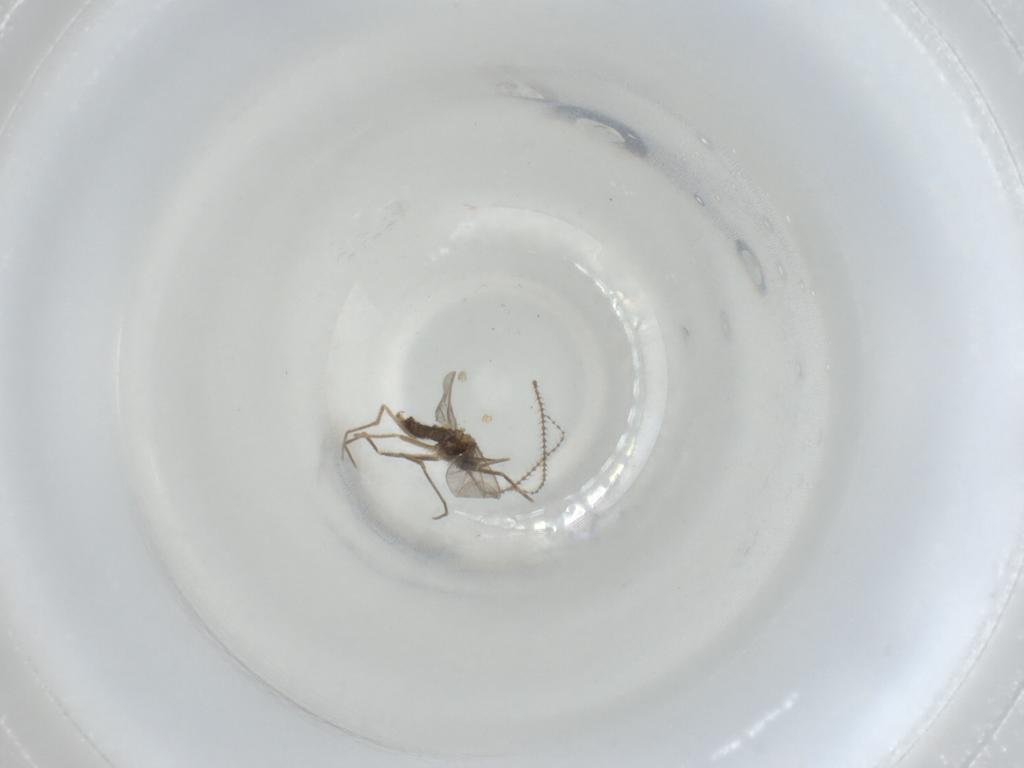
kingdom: Animalia
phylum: Arthropoda
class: Insecta
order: Diptera
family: Cecidomyiidae
